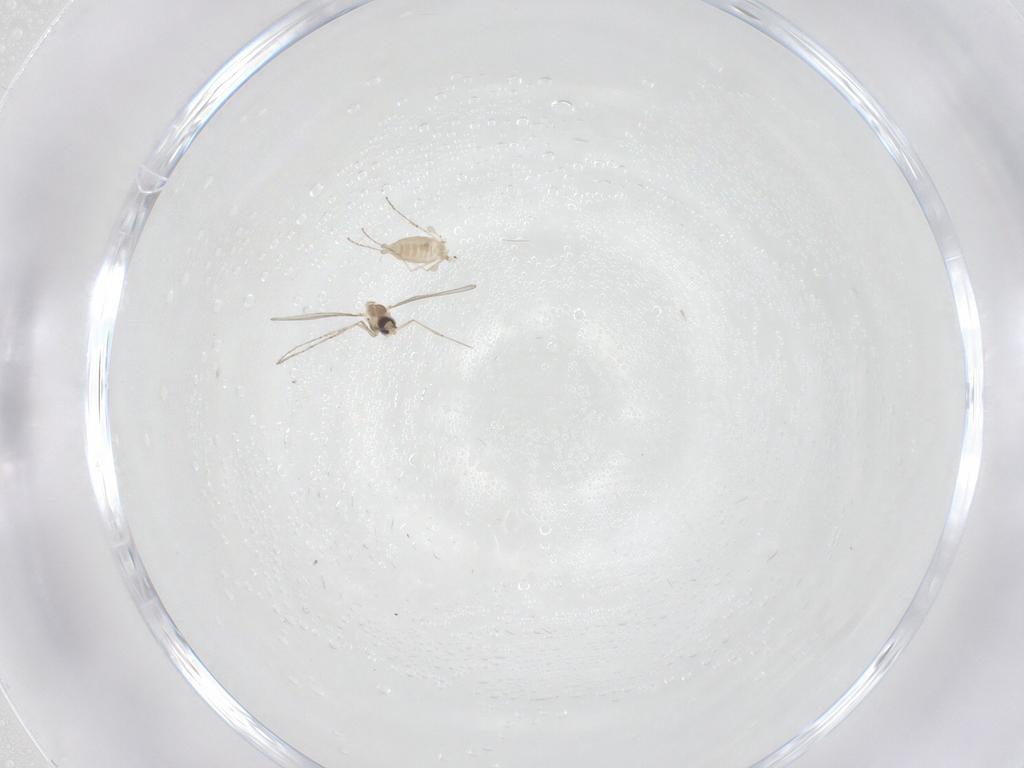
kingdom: Animalia
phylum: Arthropoda
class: Insecta
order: Diptera
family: Cecidomyiidae
